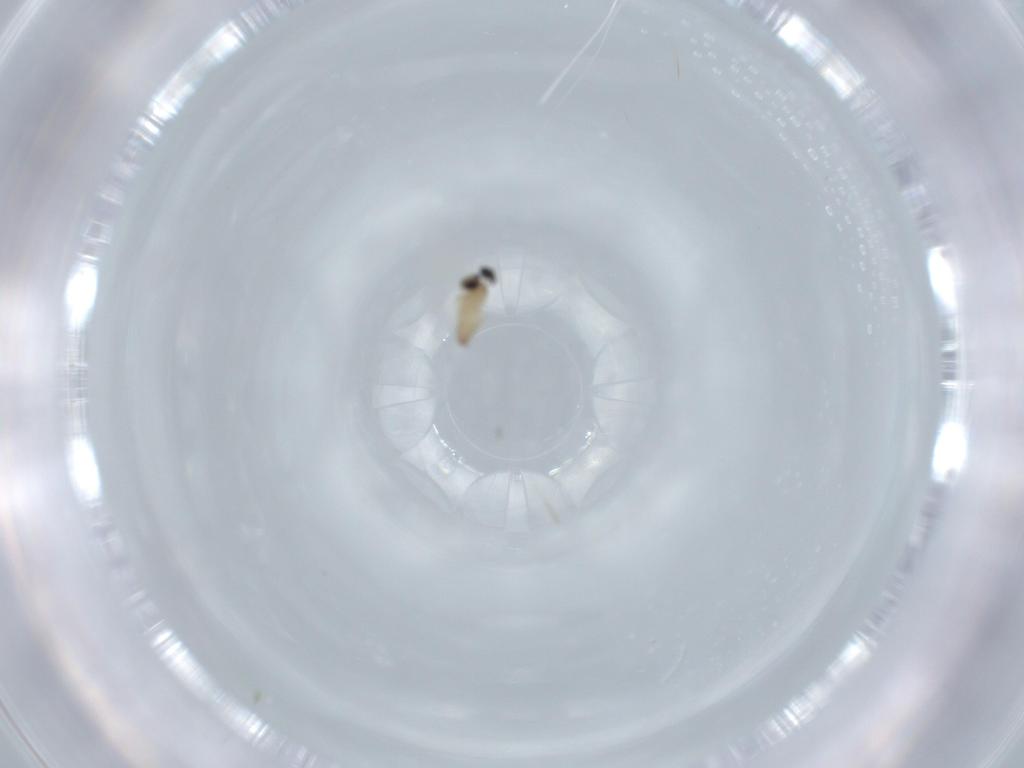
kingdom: Animalia
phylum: Arthropoda
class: Insecta
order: Diptera
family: Cecidomyiidae
